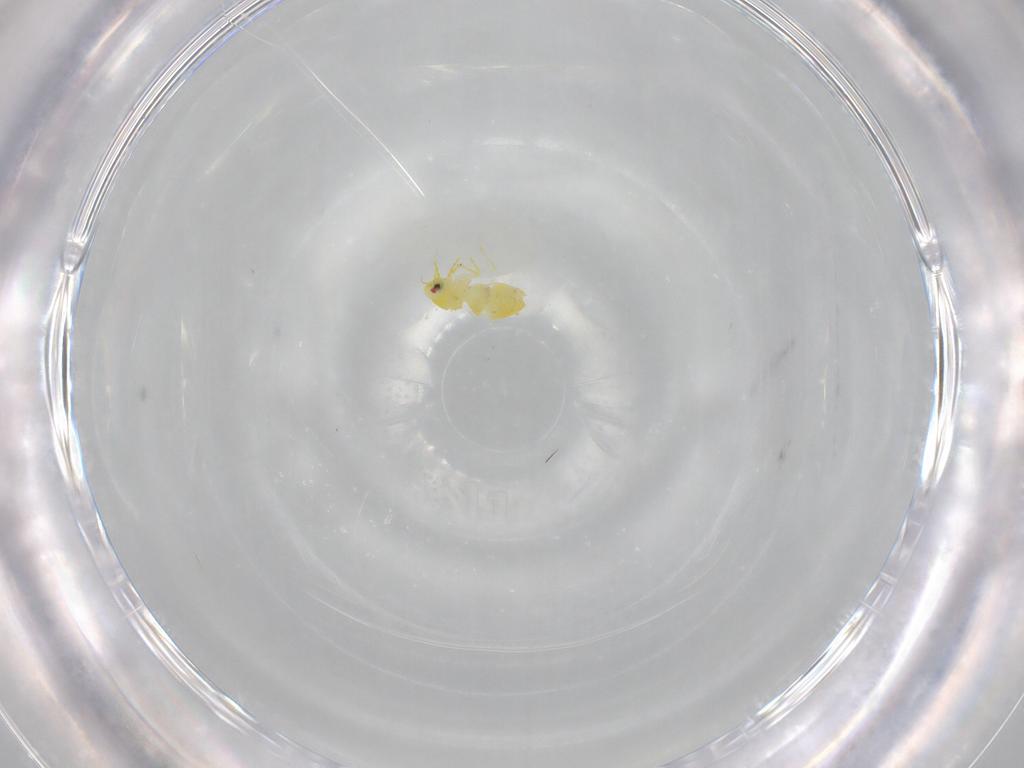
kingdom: Animalia
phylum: Arthropoda
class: Insecta
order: Hemiptera
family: Aleyrodidae
